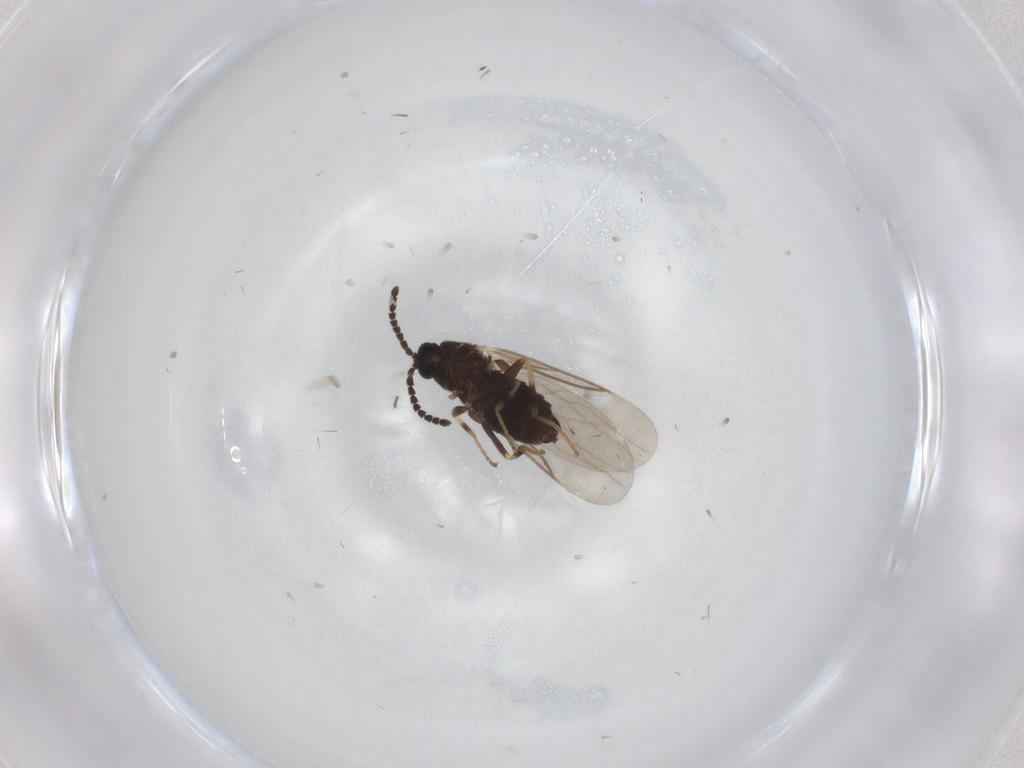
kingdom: Animalia
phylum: Arthropoda
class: Insecta
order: Diptera
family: Scatopsidae
